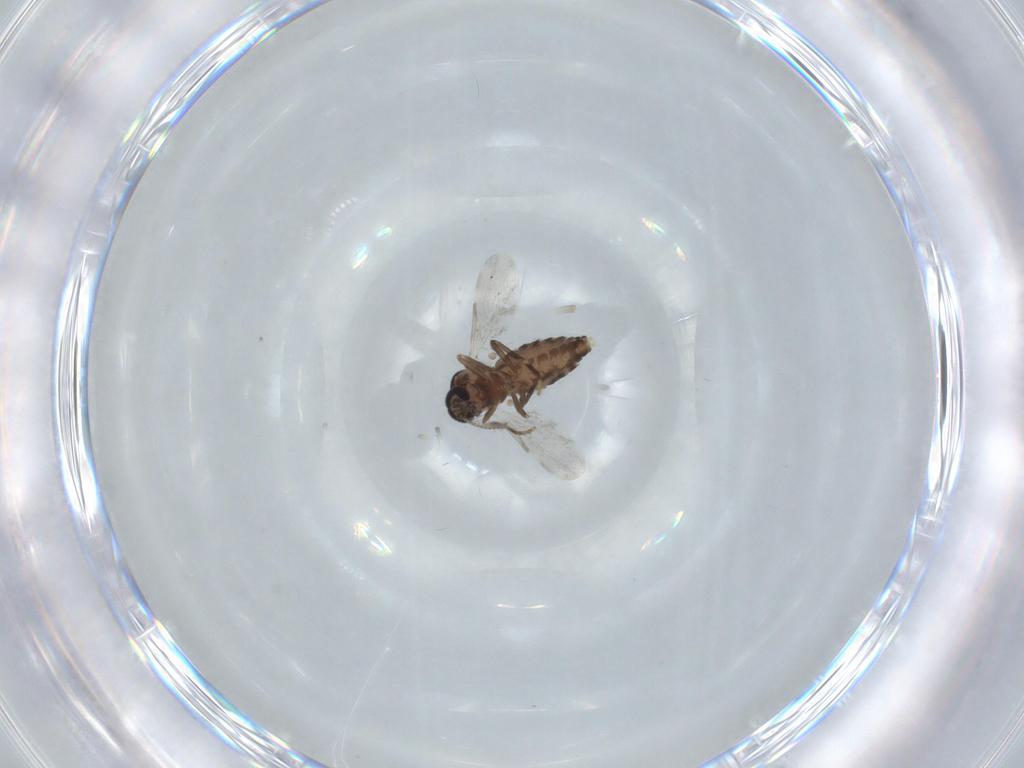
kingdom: Animalia
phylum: Arthropoda
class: Insecta
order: Diptera
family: Ceratopogonidae
